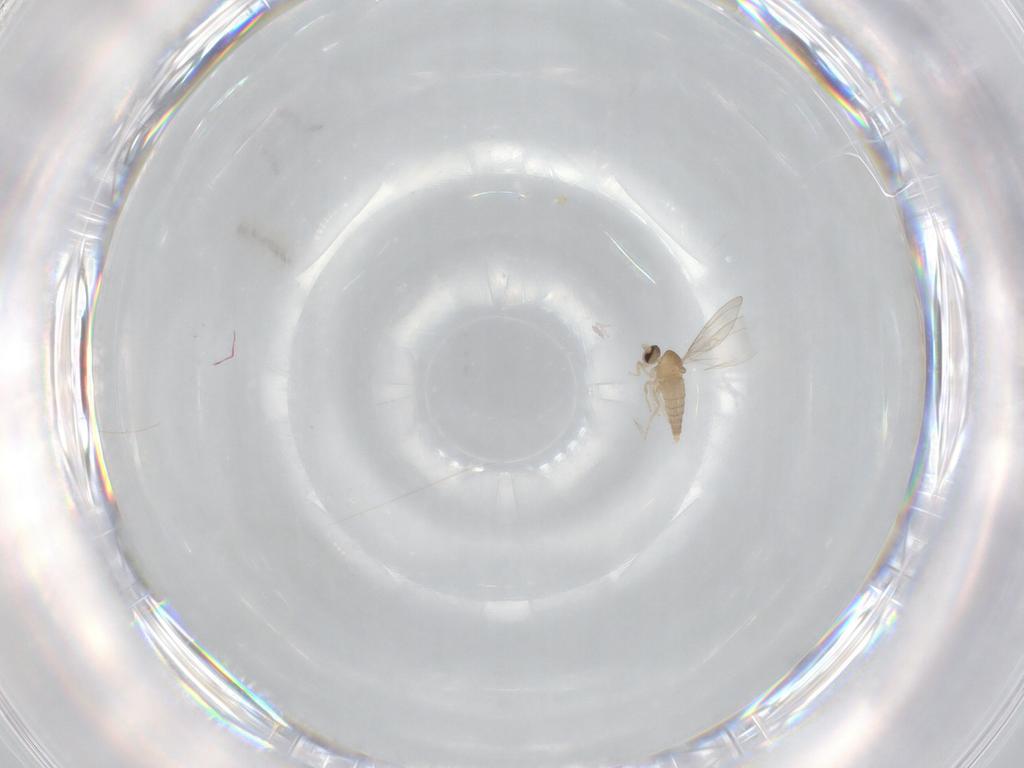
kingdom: Animalia
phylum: Arthropoda
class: Insecta
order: Diptera
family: Cecidomyiidae
